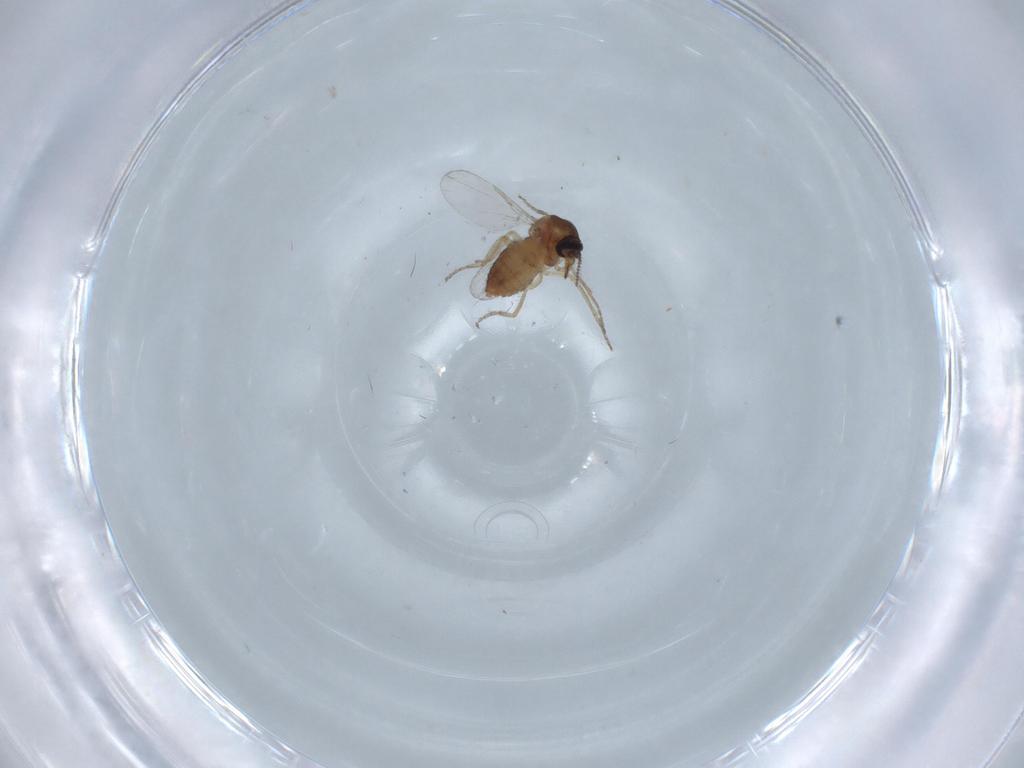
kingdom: Animalia
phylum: Arthropoda
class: Insecta
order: Diptera
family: Ceratopogonidae
